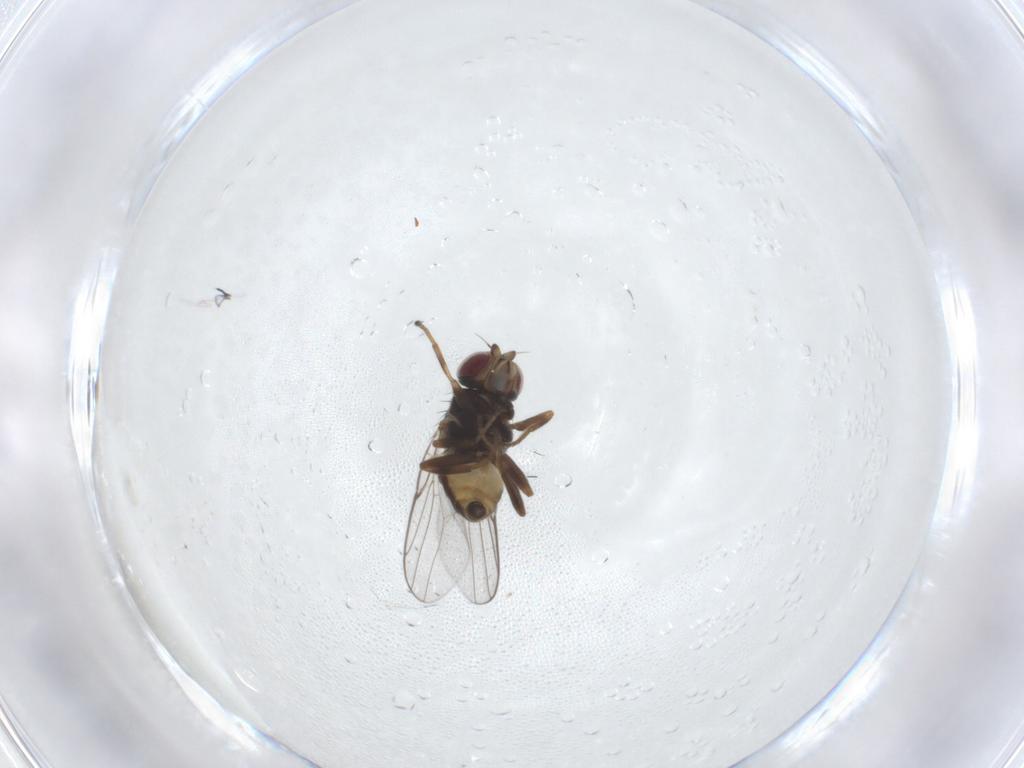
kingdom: Animalia
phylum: Arthropoda
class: Insecta
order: Diptera
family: Chloropidae
